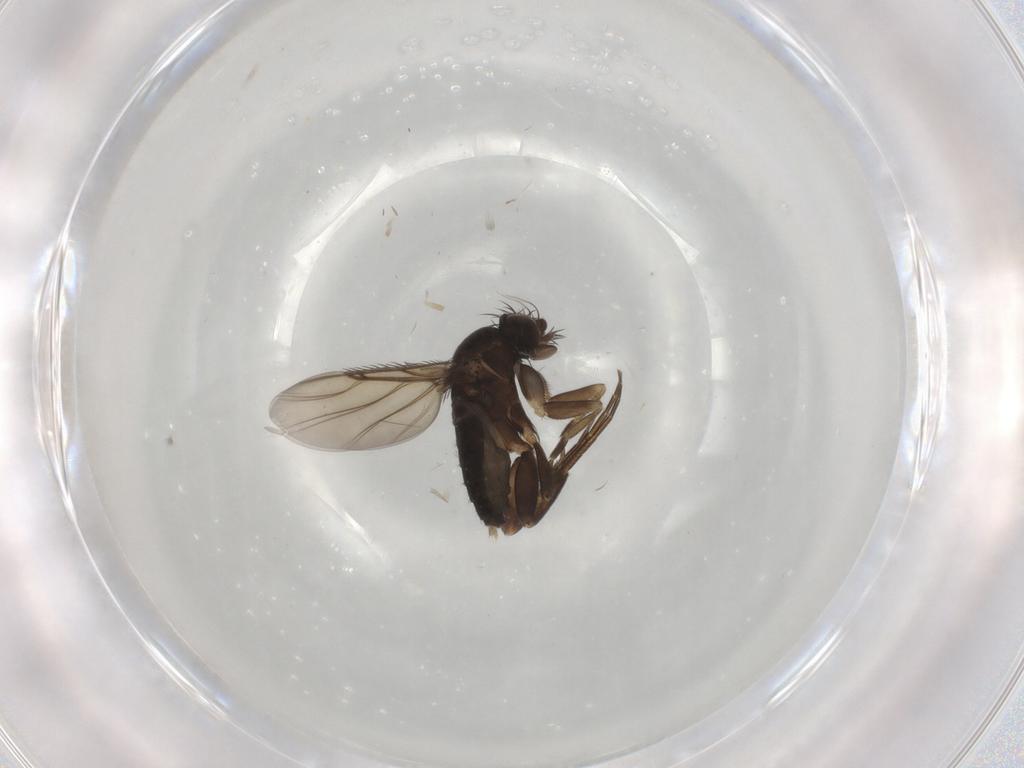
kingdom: Animalia
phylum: Arthropoda
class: Insecta
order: Diptera
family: Phoridae
